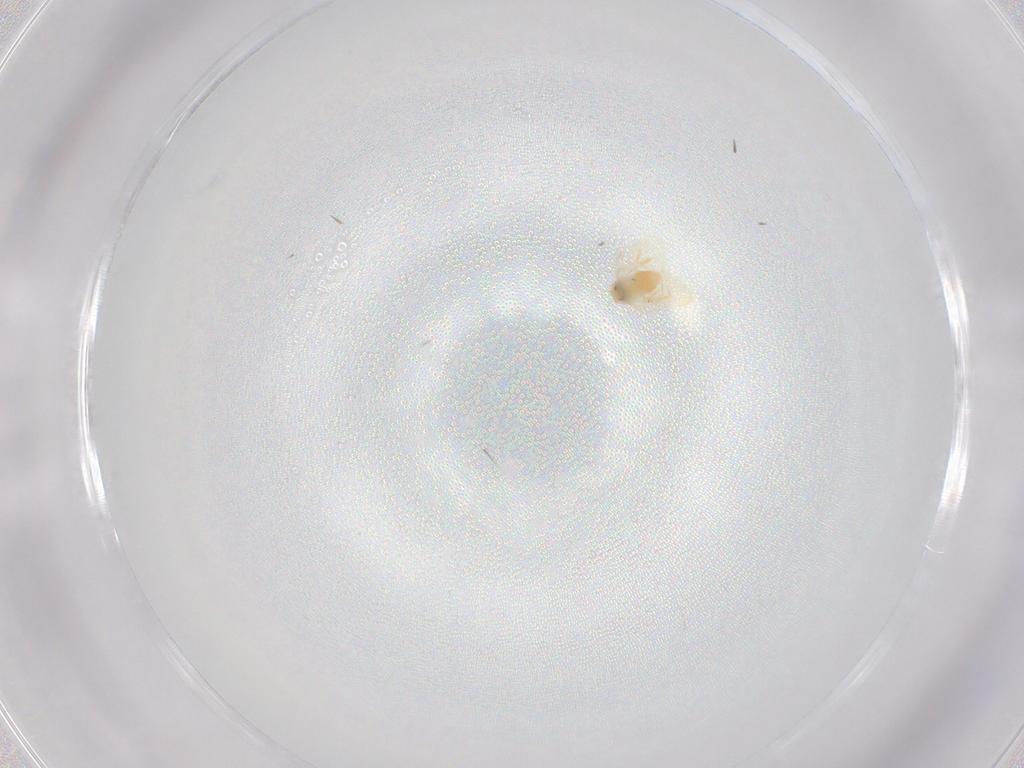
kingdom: Animalia
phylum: Arthropoda
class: Insecta
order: Hemiptera
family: Aleyrodidae
